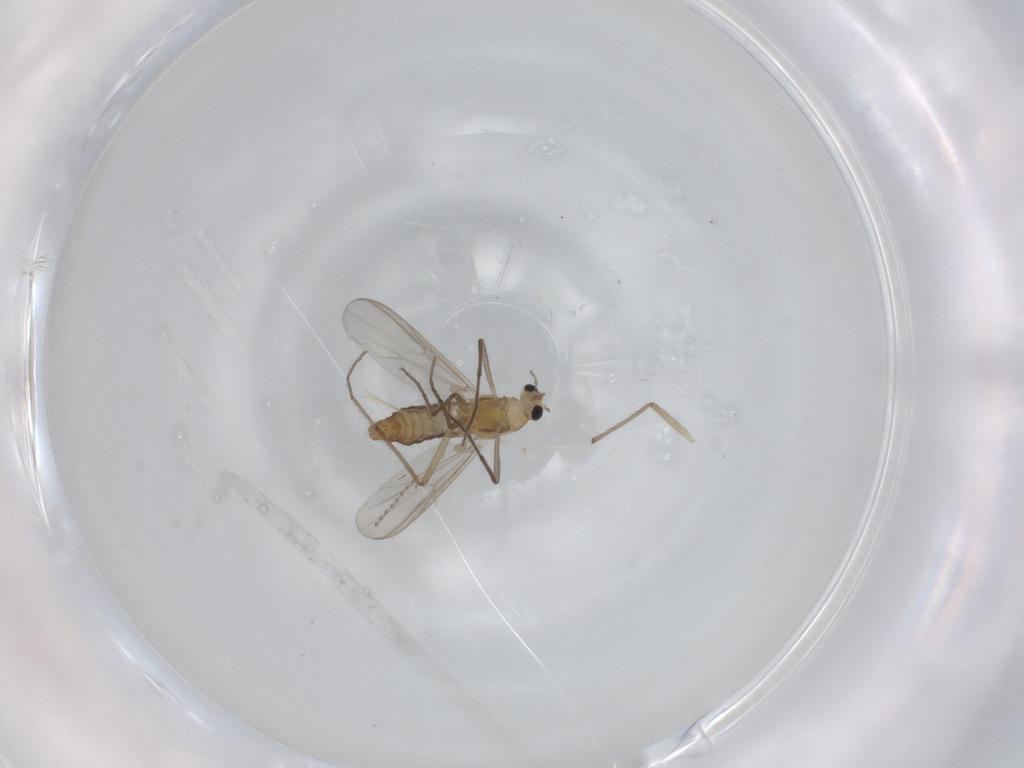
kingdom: Animalia
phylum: Arthropoda
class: Insecta
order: Diptera
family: Chironomidae
